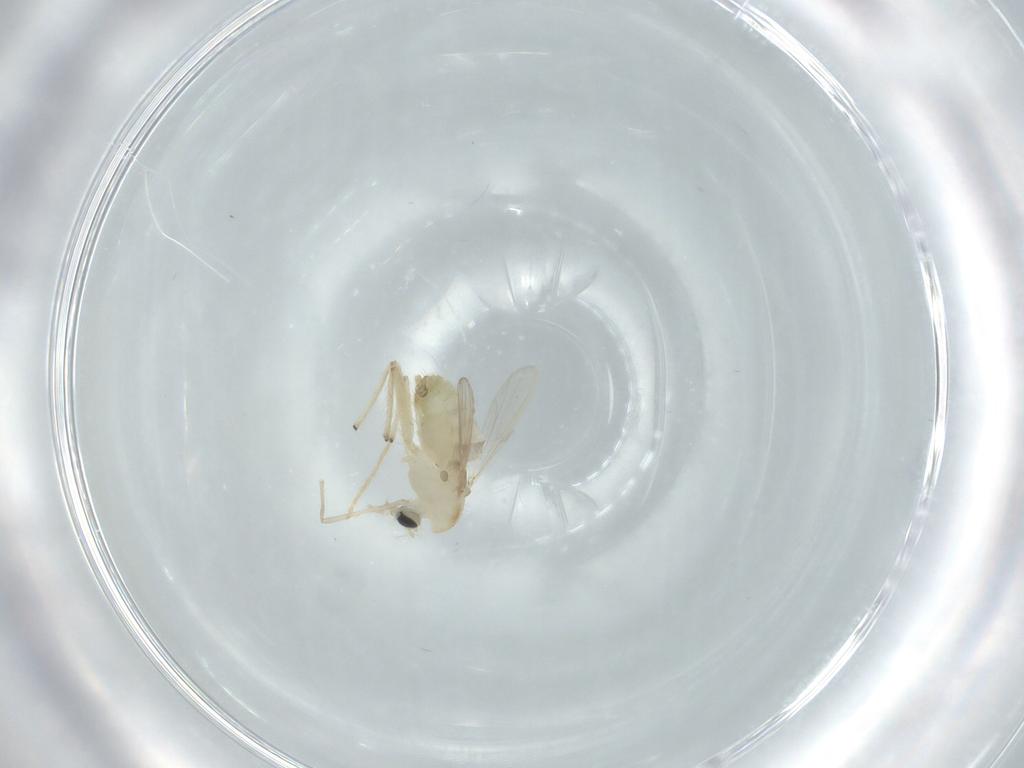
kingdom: Animalia
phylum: Arthropoda
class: Insecta
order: Diptera
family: Chironomidae
